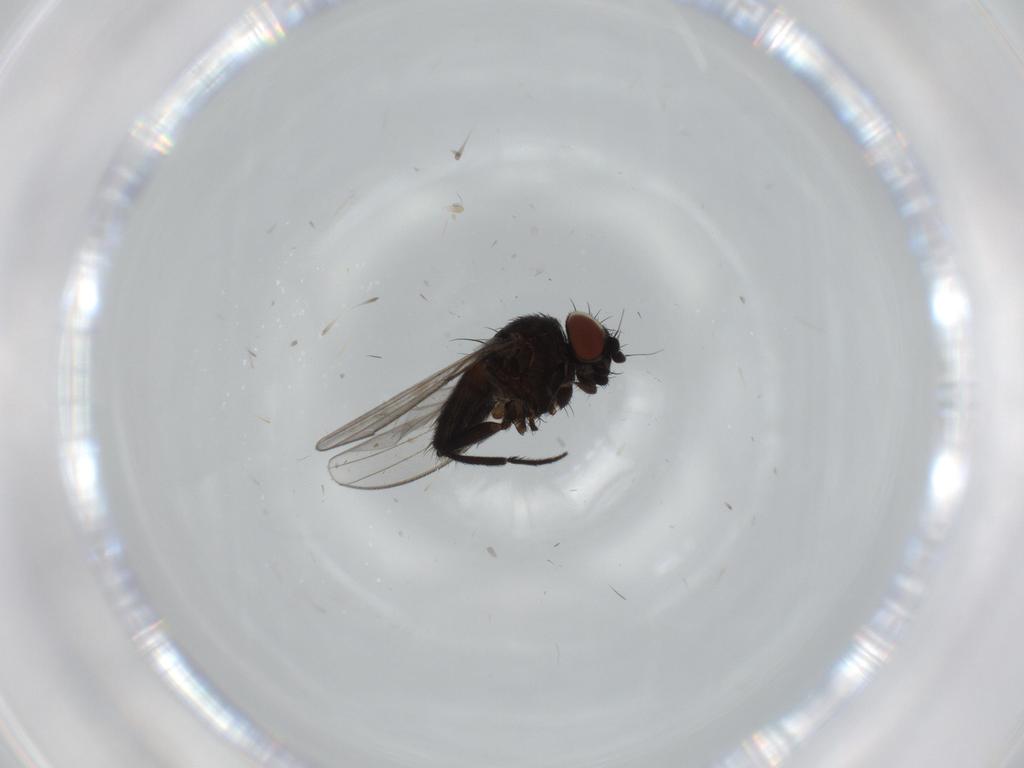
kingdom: Animalia
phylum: Arthropoda
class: Insecta
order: Diptera
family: Milichiidae
